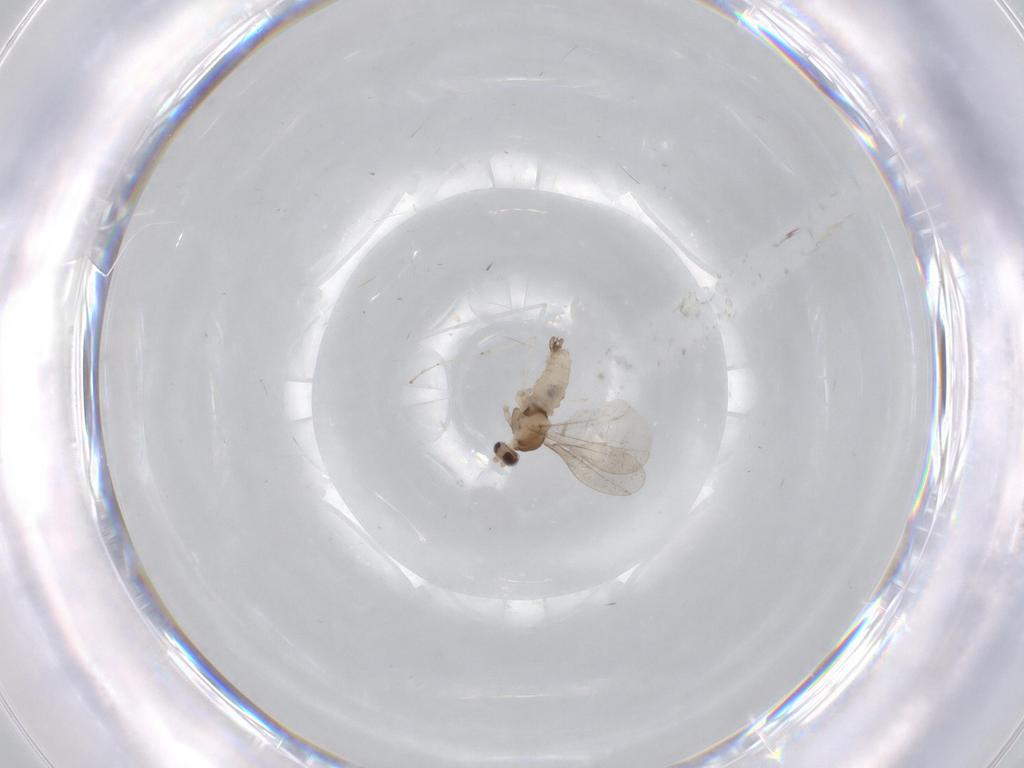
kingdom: Animalia
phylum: Arthropoda
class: Insecta
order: Diptera
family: Cecidomyiidae
